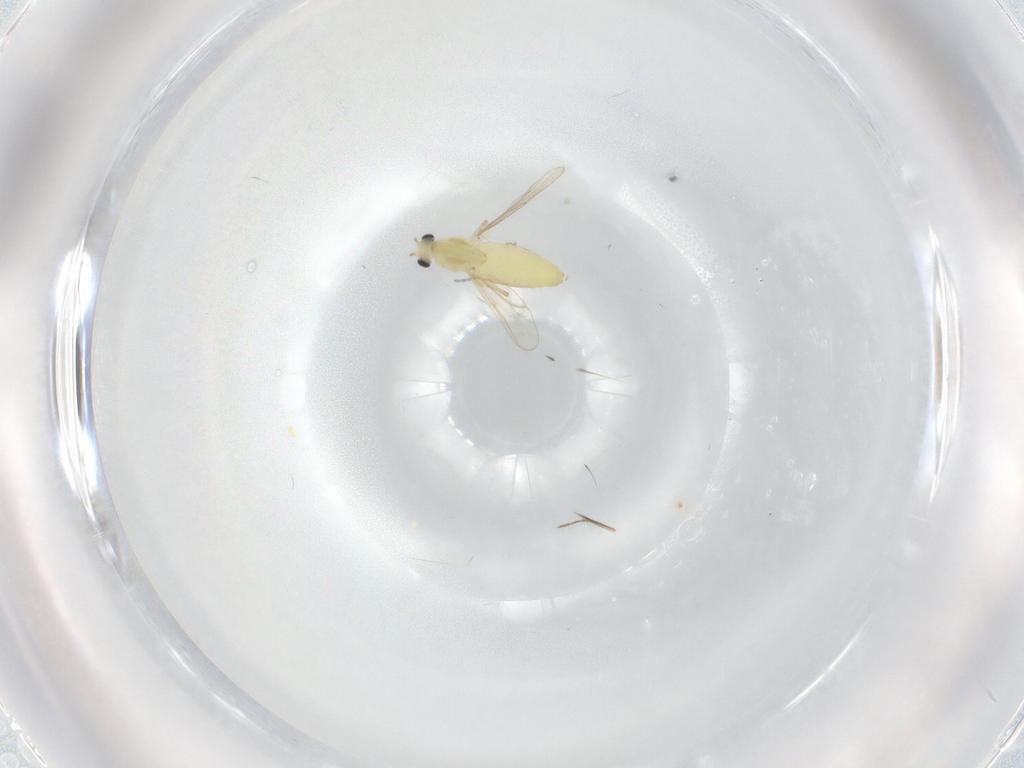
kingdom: Animalia
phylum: Arthropoda
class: Insecta
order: Diptera
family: Chironomidae
